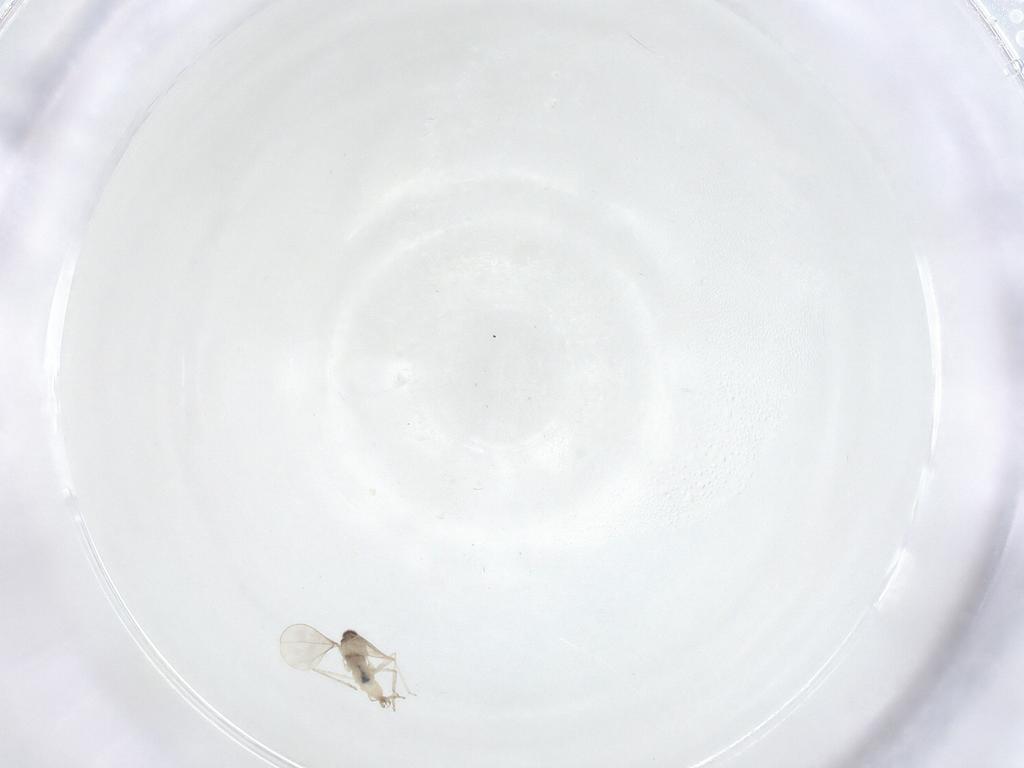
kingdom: Animalia
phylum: Arthropoda
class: Insecta
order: Diptera
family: Cecidomyiidae
